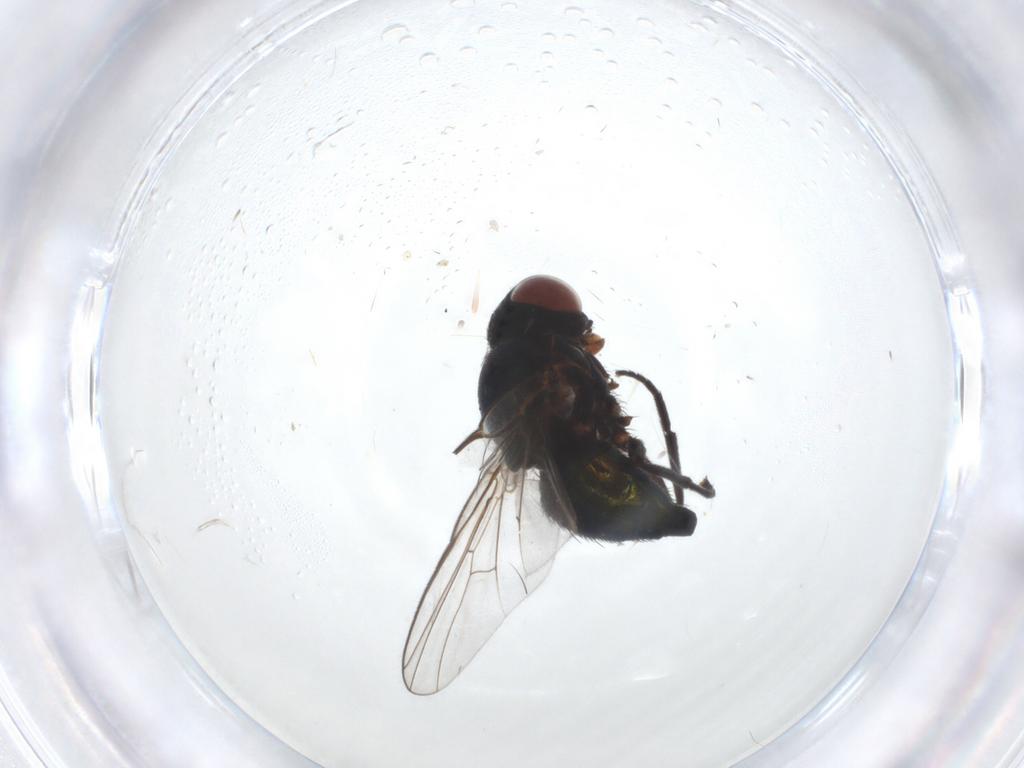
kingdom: Animalia
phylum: Arthropoda
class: Insecta
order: Diptera
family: Agromyzidae
